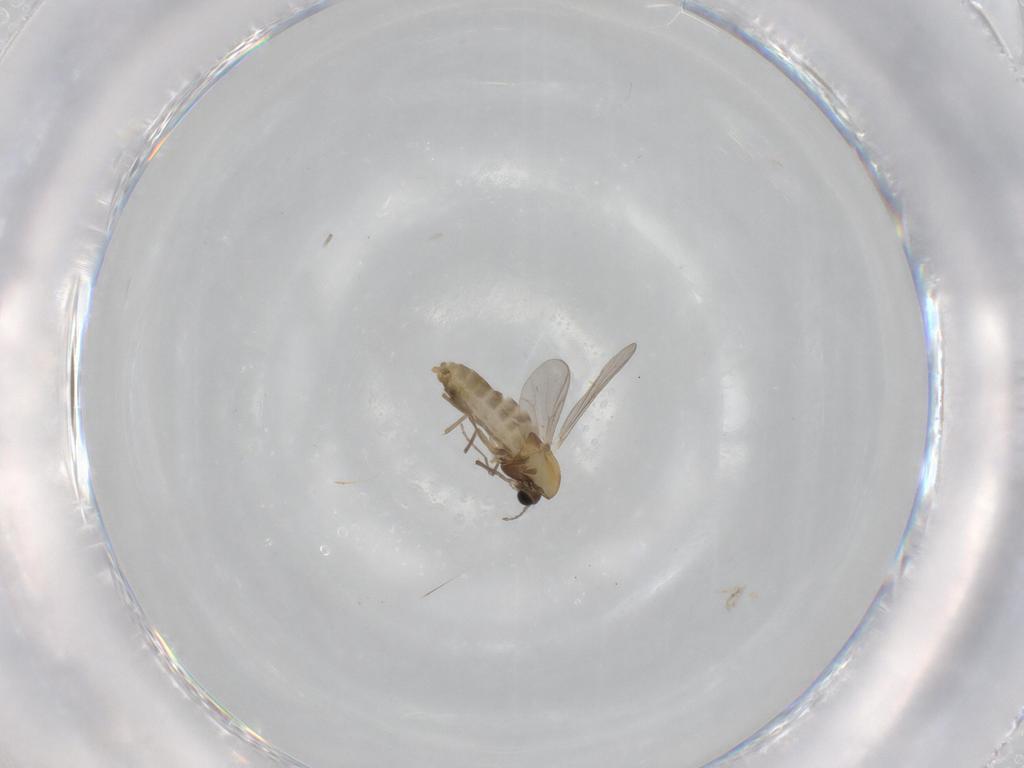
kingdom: Animalia
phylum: Arthropoda
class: Insecta
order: Diptera
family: Chironomidae
